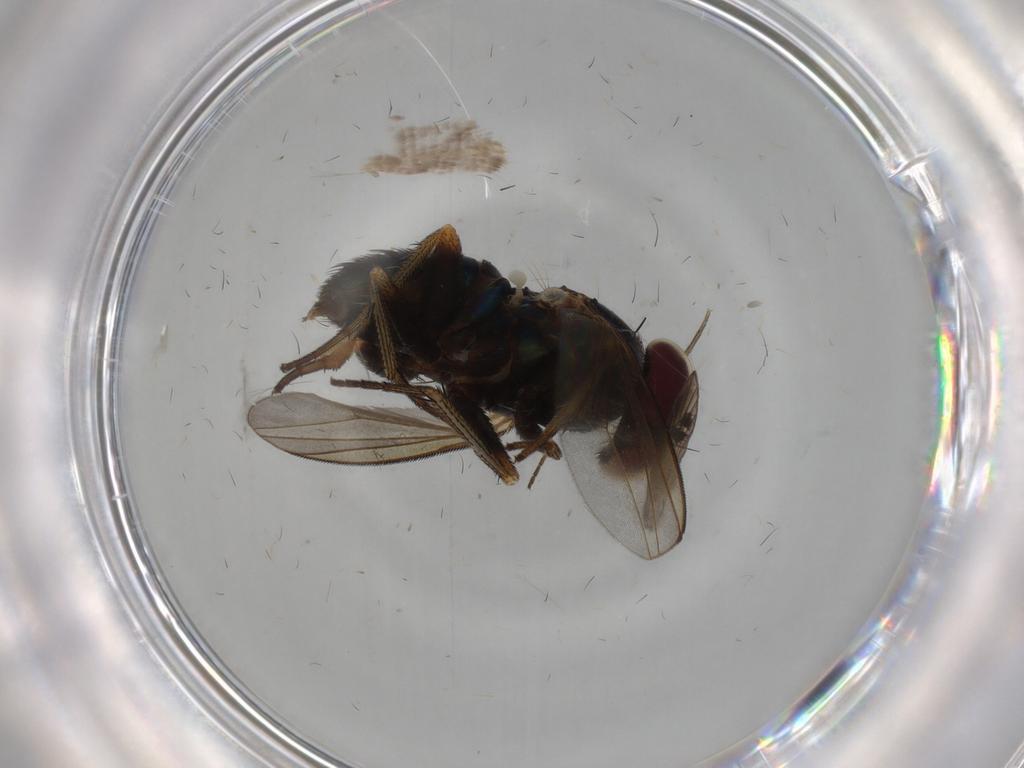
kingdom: Animalia
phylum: Arthropoda
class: Insecta
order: Diptera
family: Dolichopodidae
